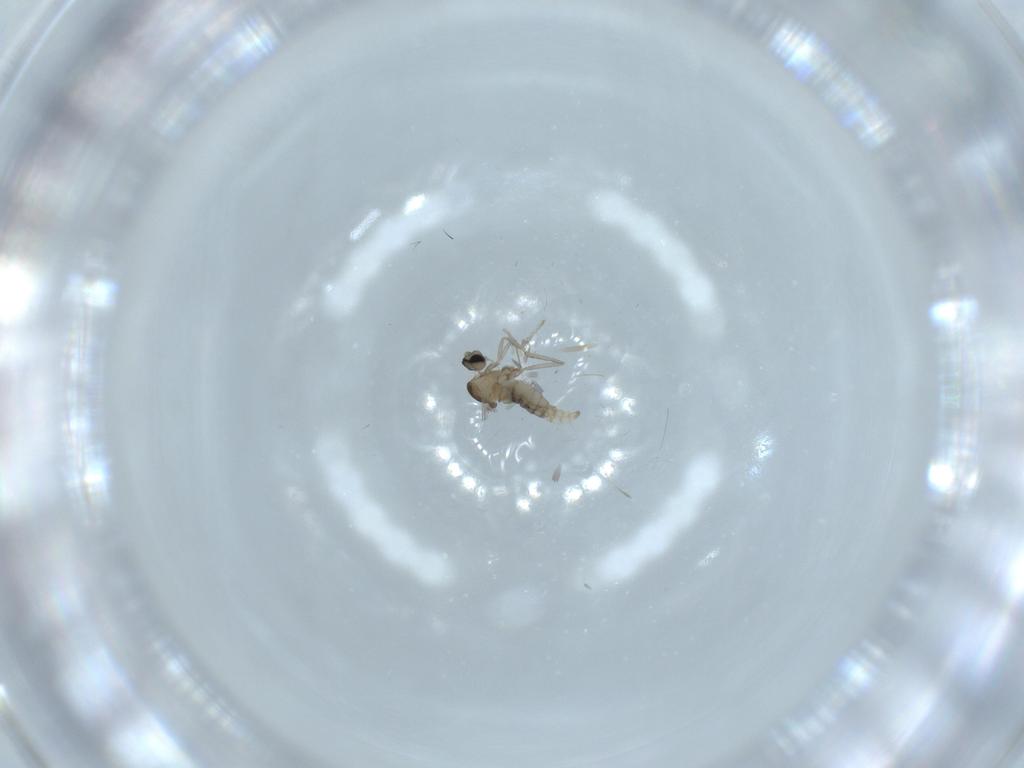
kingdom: Animalia
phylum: Arthropoda
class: Insecta
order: Diptera
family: Cecidomyiidae
